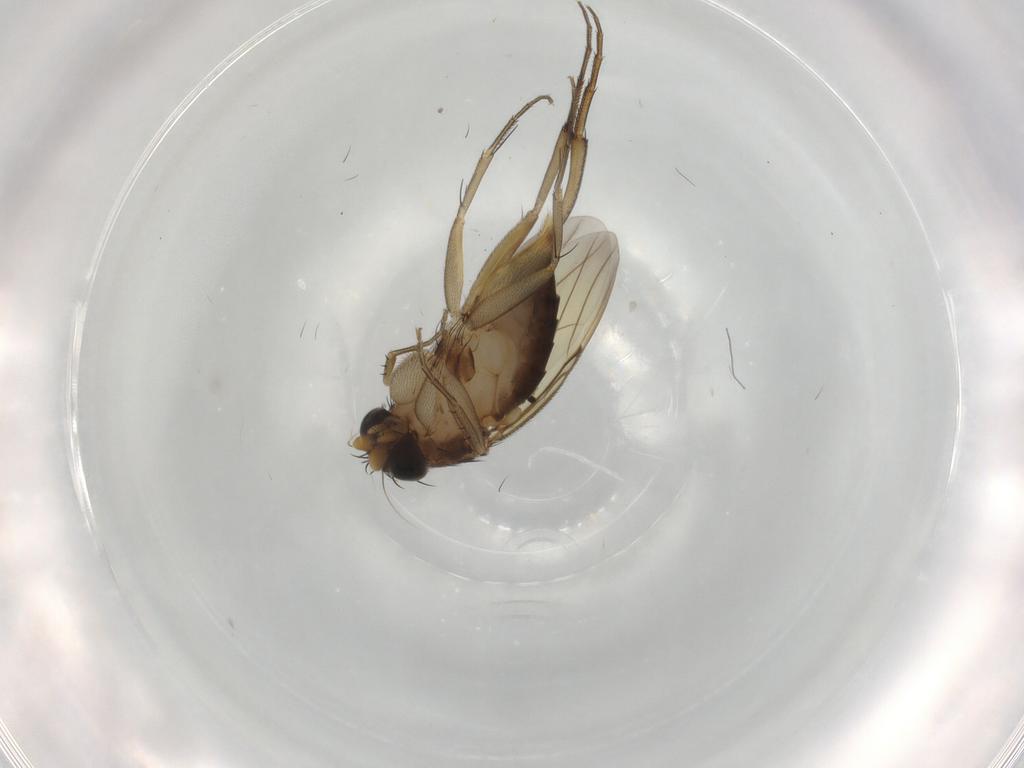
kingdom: Animalia
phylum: Arthropoda
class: Insecta
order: Diptera
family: Phoridae
